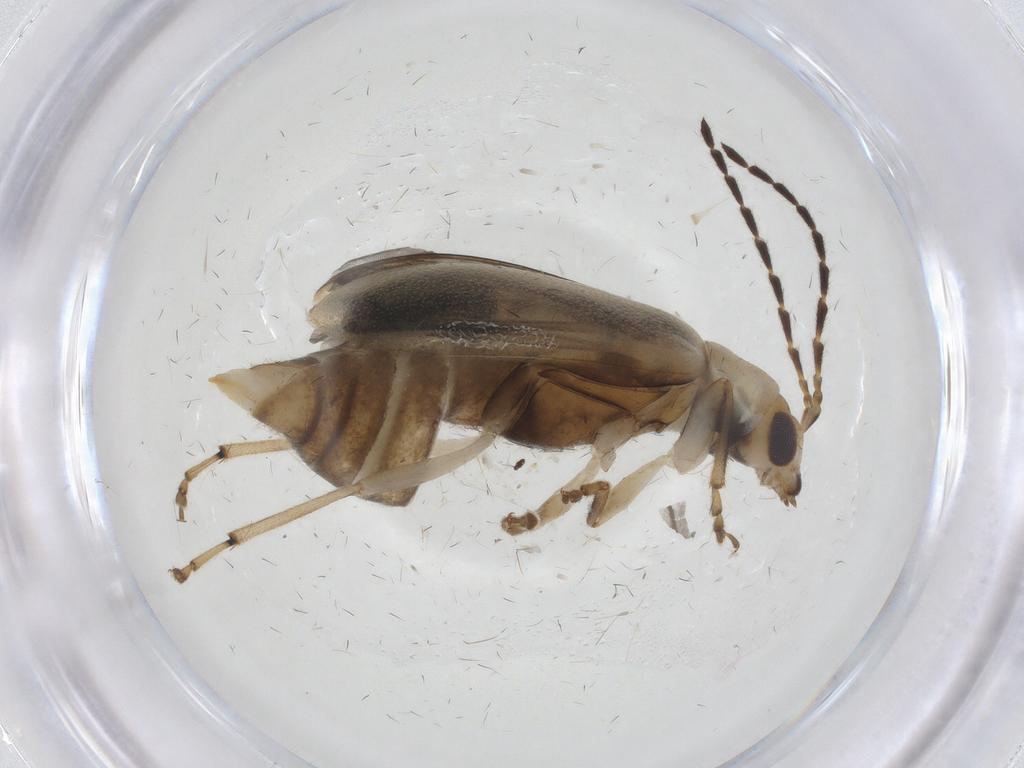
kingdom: Animalia
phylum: Arthropoda
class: Insecta
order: Coleoptera
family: Chrysomelidae
